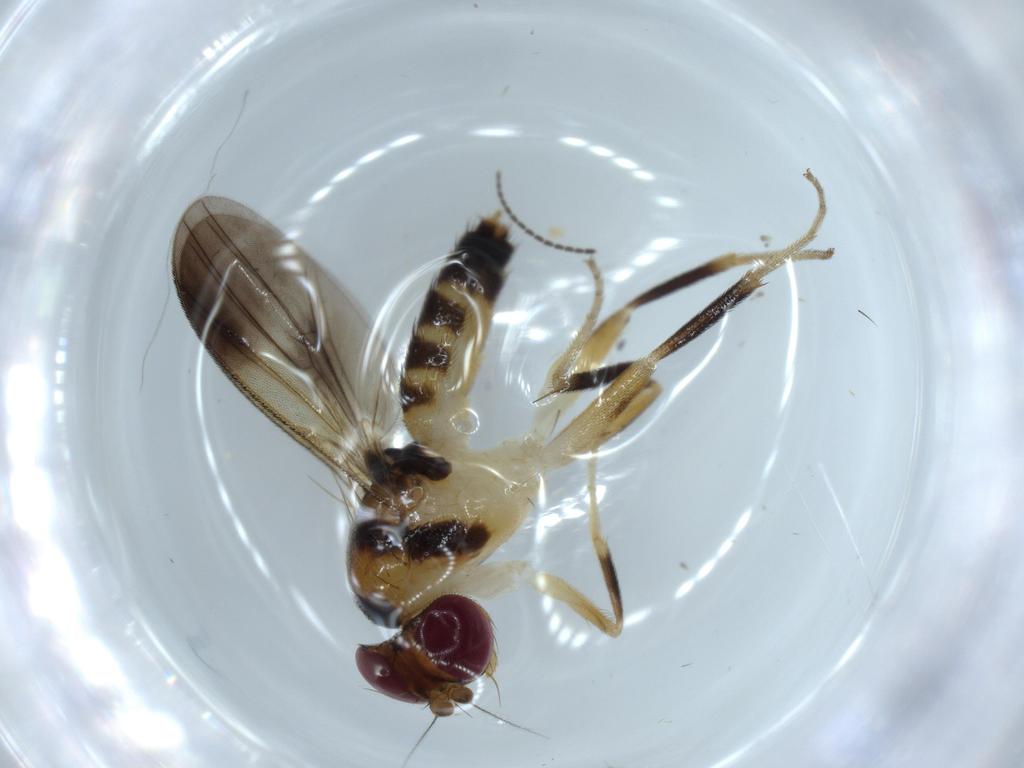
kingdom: Animalia
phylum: Arthropoda
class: Insecta
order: Diptera
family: Clusiidae
